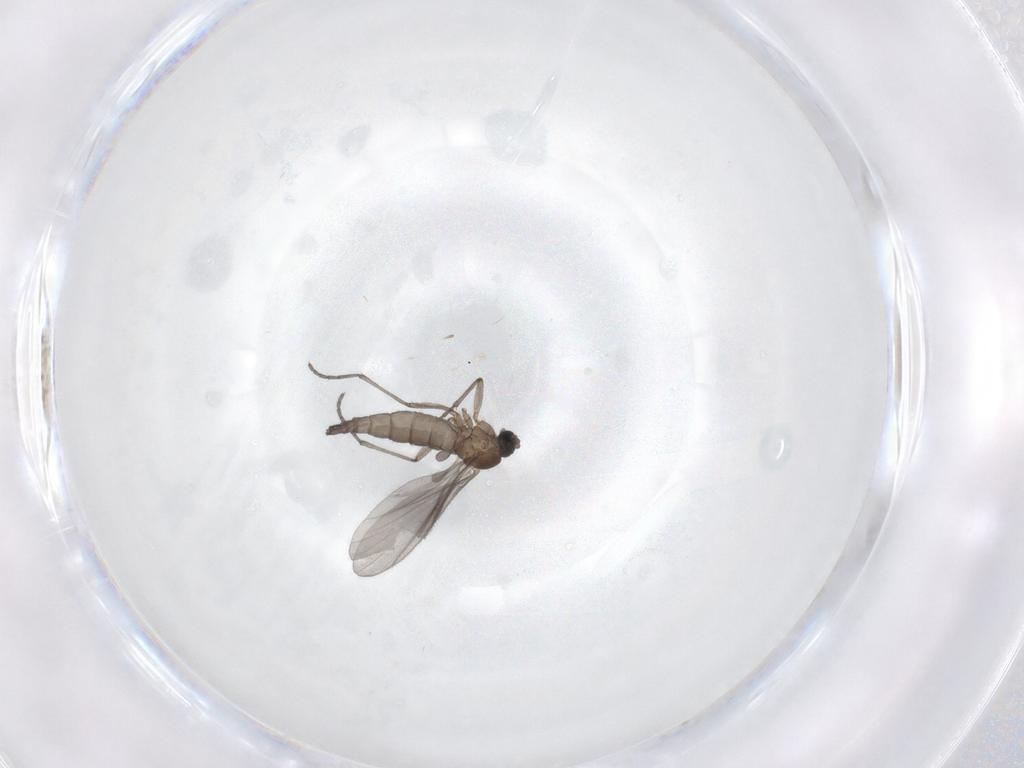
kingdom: Animalia
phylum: Arthropoda
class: Insecta
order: Diptera
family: Sciaridae
